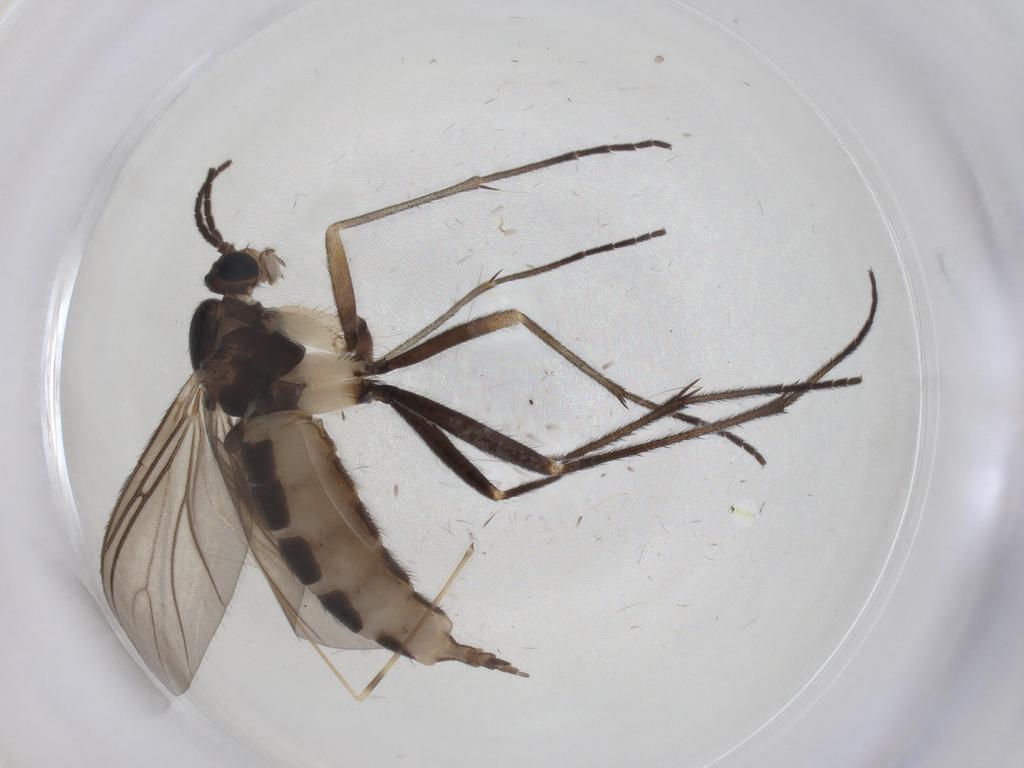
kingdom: Animalia
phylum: Arthropoda
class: Insecta
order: Diptera
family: Sciaridae
